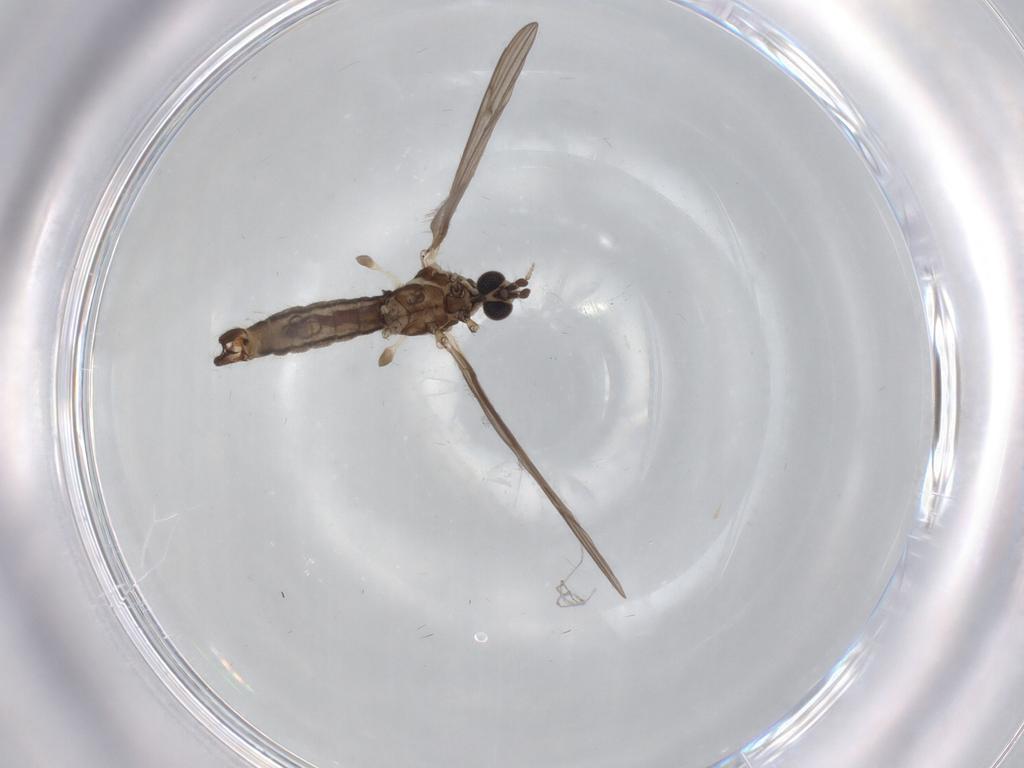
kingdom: Animalia
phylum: Arthropoda
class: Insecta
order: Diptera
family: Limoniidae
